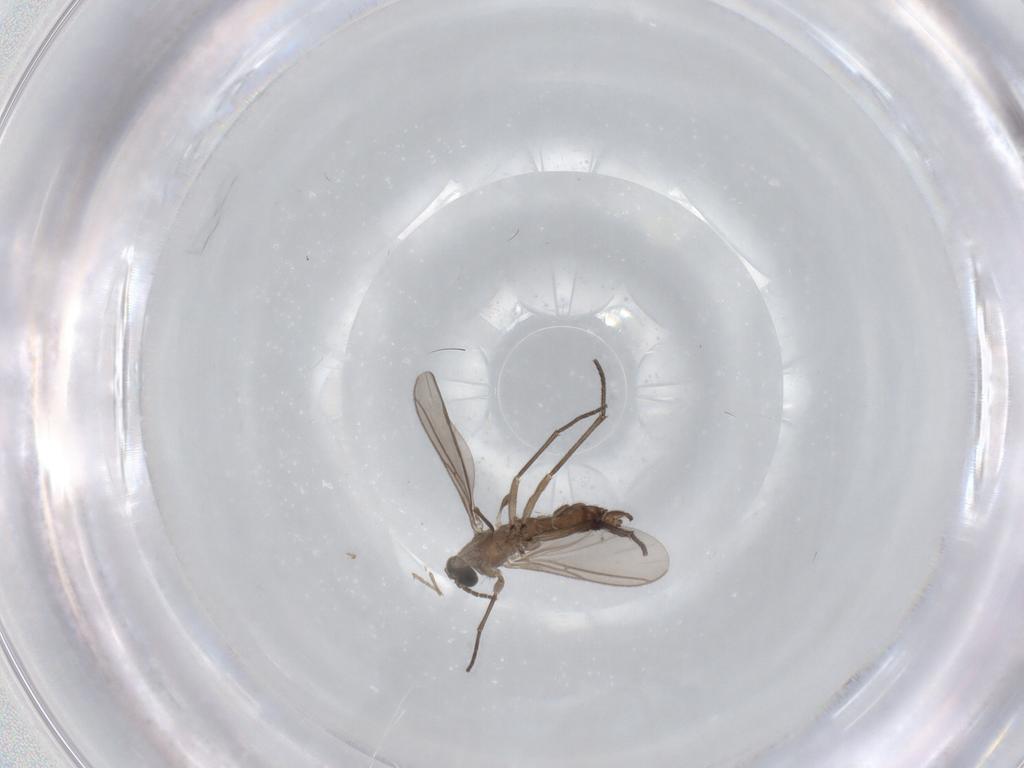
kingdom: Animalia
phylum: Arthropoda
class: Insecta
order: Diptera
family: Sciaridae
